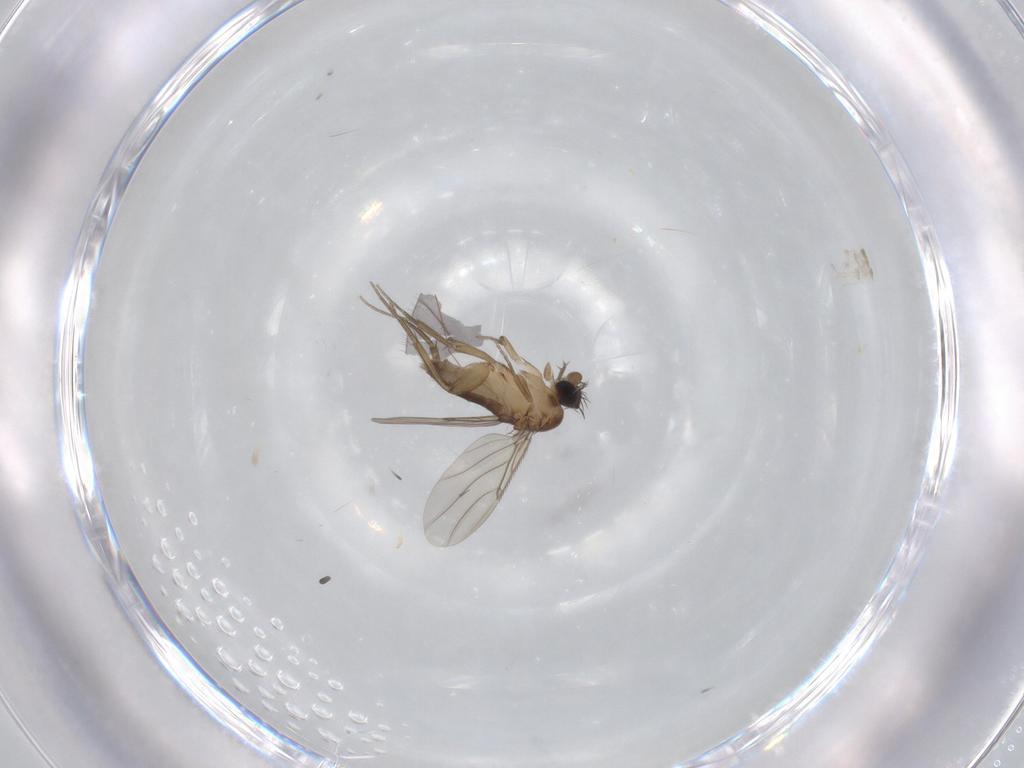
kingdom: Animalia
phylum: Arthropoda
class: Insecta
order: Diptera
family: Phoridae
